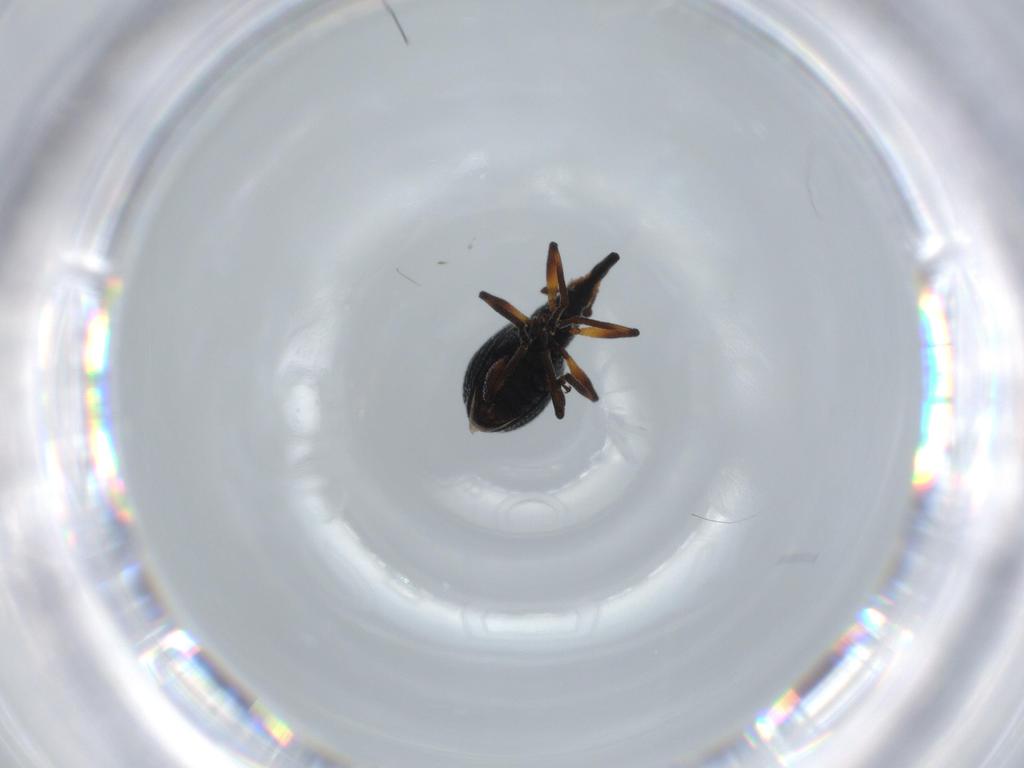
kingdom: Animalia
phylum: Arthropoda
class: Insecta
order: Coleoptera
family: Brentidae
